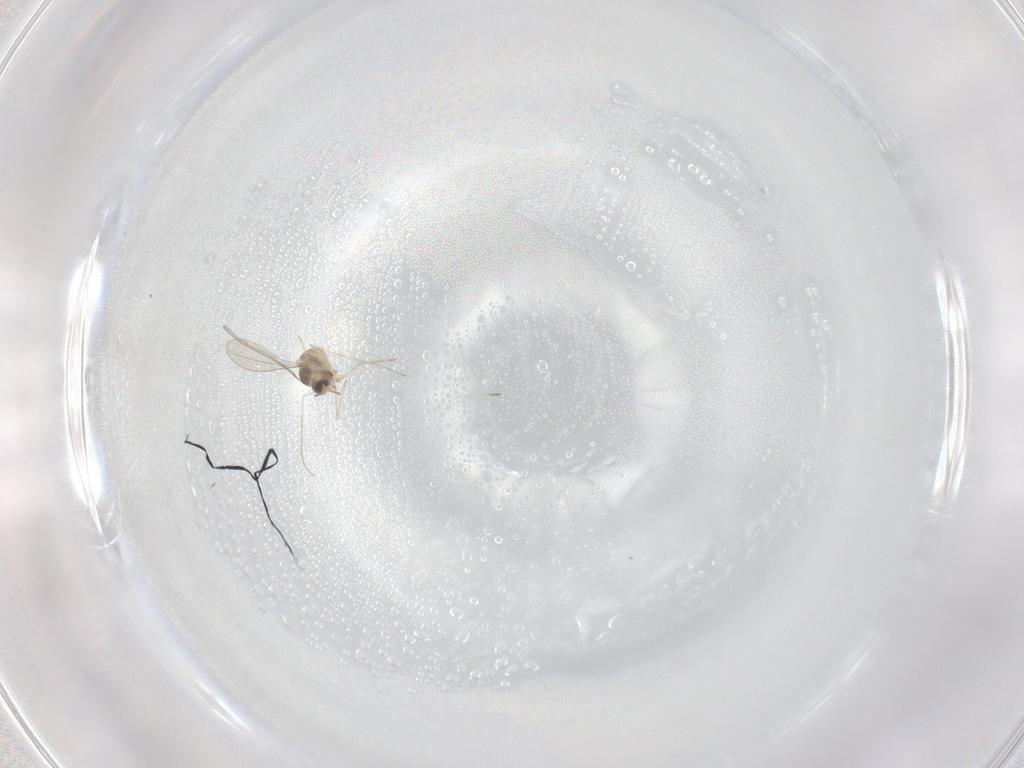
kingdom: Animalia
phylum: Arthropoda
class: Insecta
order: Diptera
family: Cecidomyiidae
